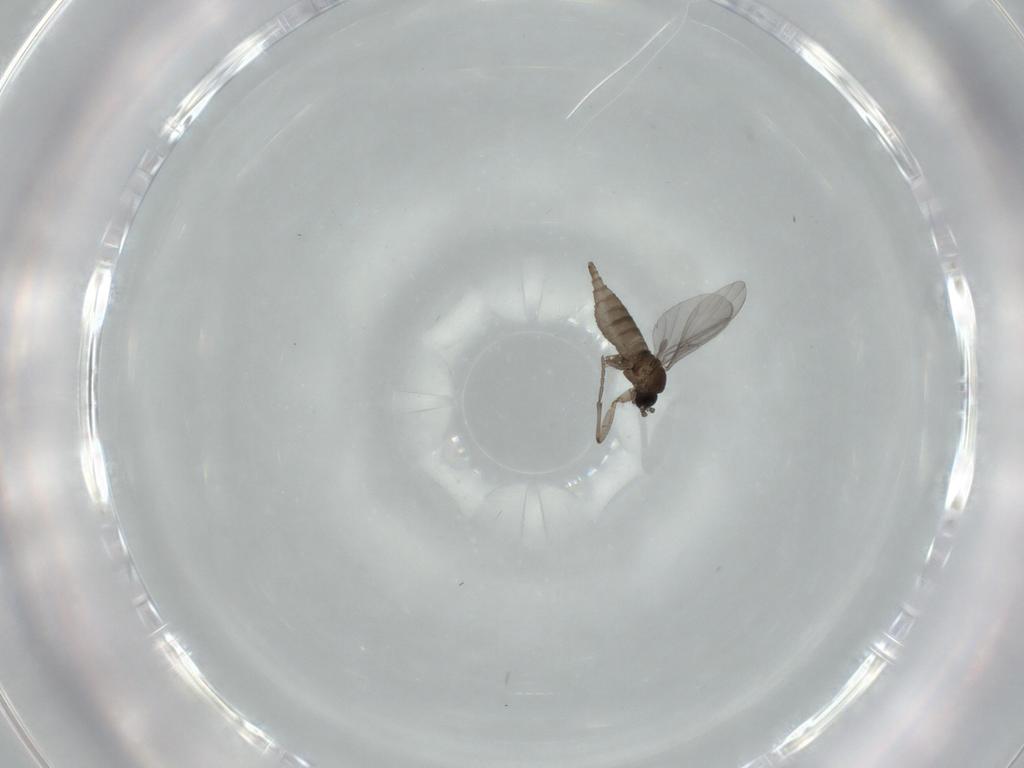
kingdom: Animalia
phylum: Arthropoda
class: Insecta
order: Diptera
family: Sciaridae
